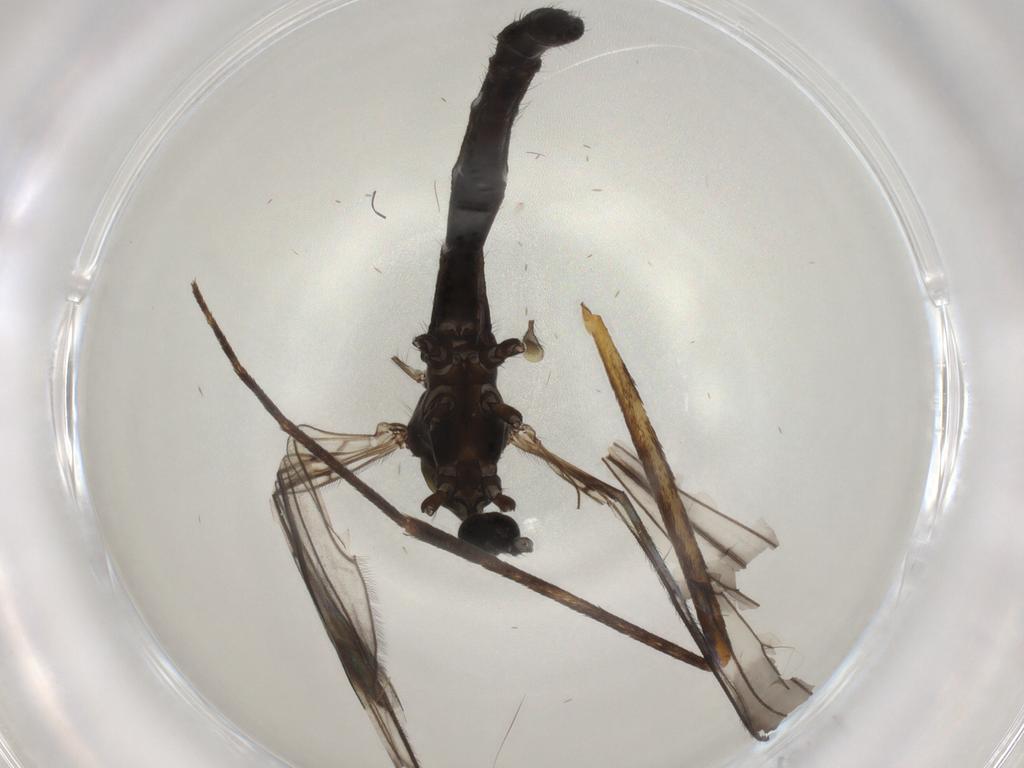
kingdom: Animalia
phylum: Arthropoda
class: Insecta
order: Diptera
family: Limoniidae
